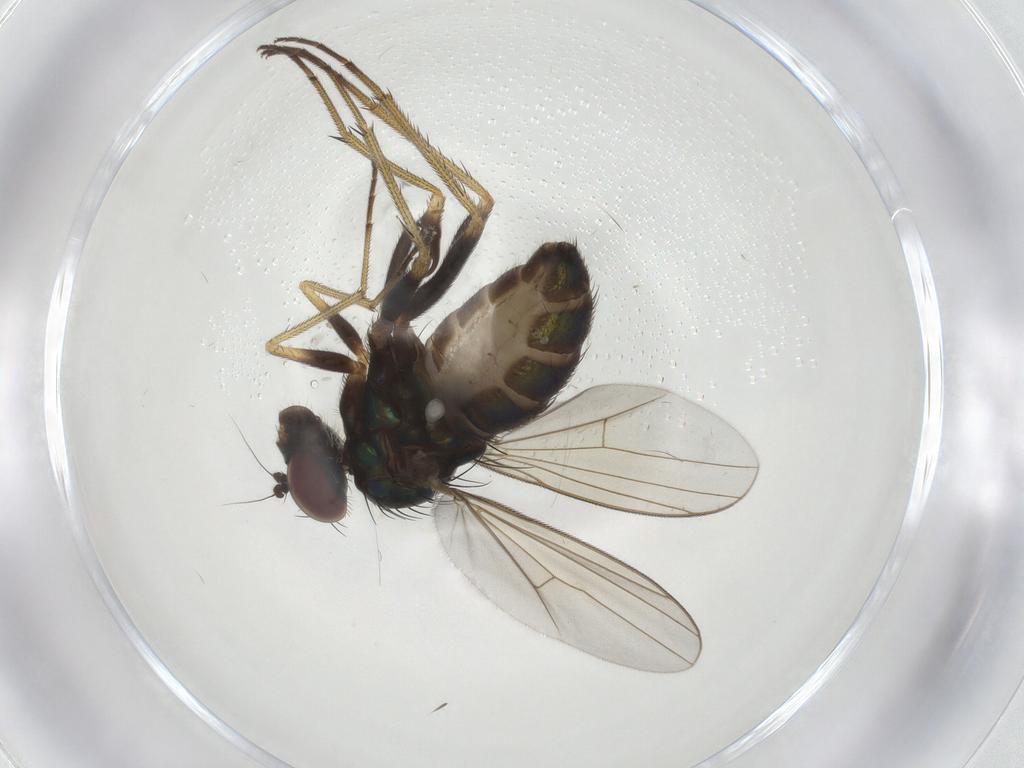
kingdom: Animalia
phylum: Arthropoda
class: Insecta
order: Diptera
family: Dolichopodidae
